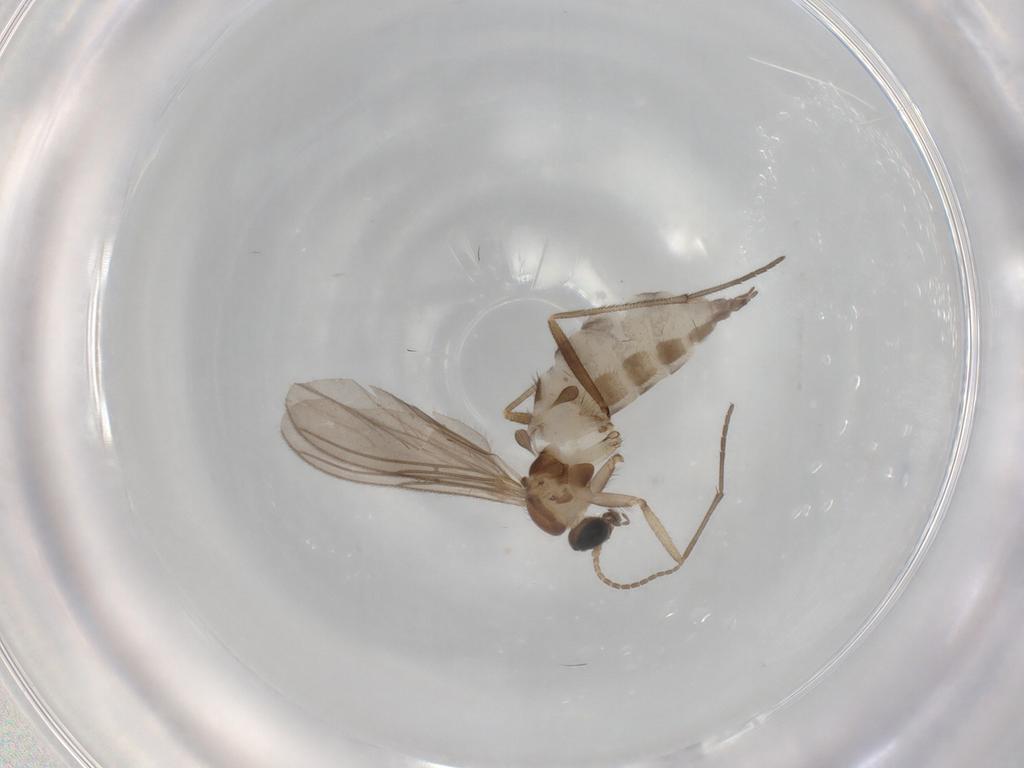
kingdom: Animalia
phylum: Arthropoda
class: Insecta
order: Diptera
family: Sciaridae
